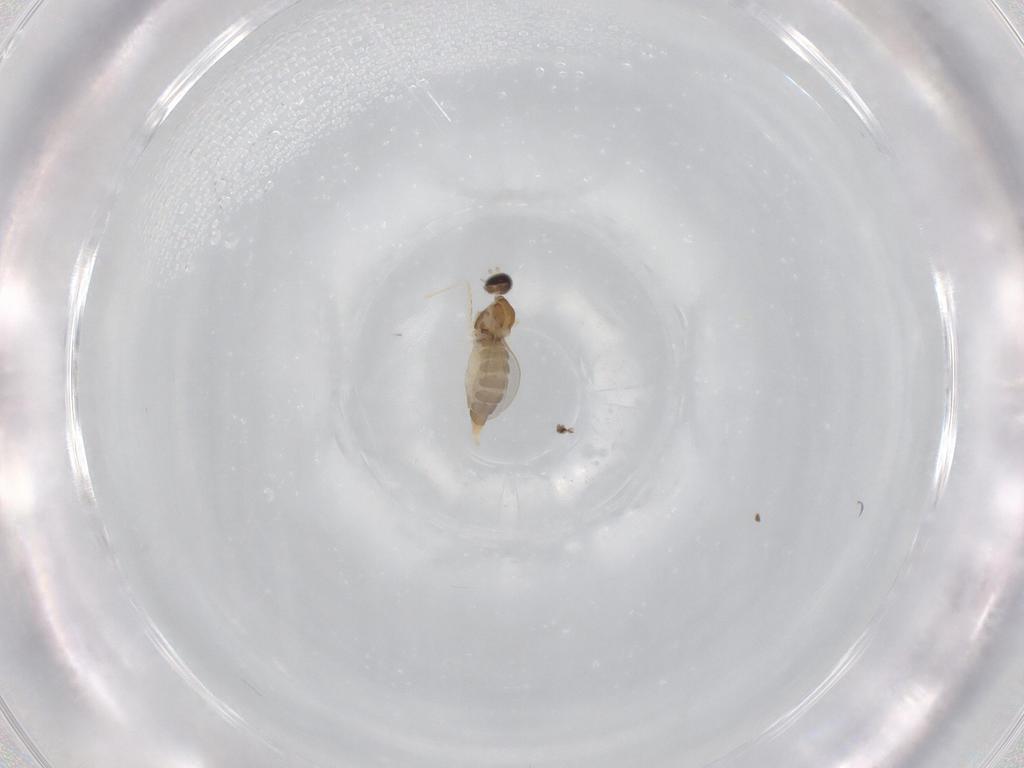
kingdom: Animalia
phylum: Arthropoda
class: Insecta
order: Diptera
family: Cecidomyiidae
